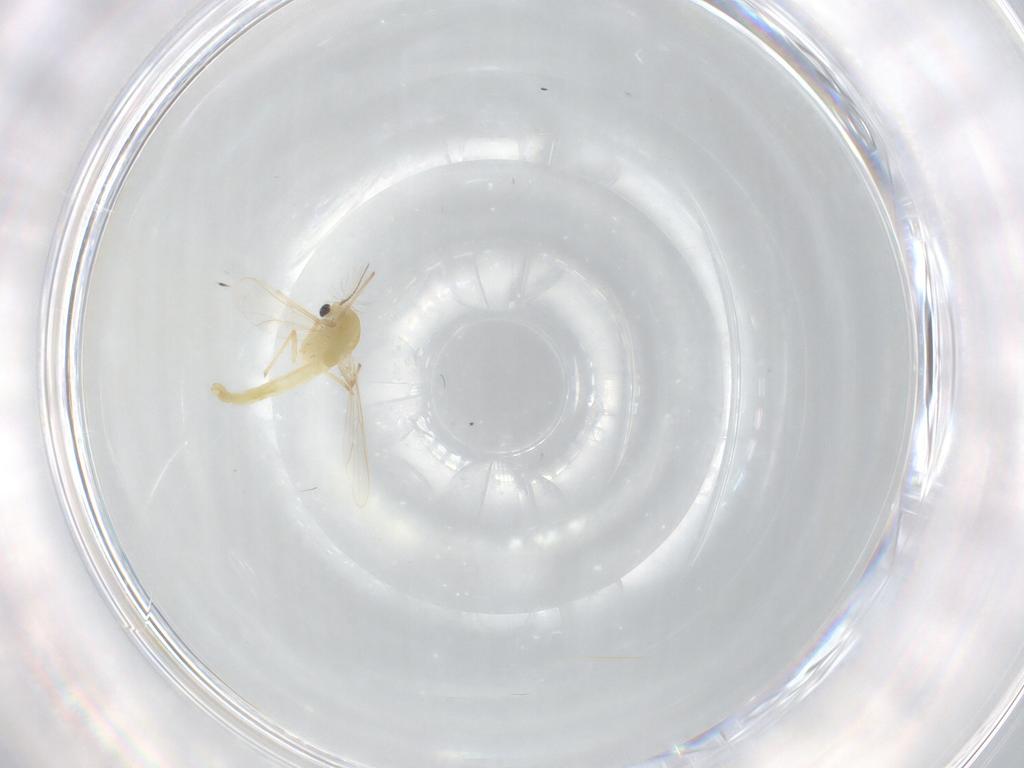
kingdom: Animalia
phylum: Arthropoda
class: Insecta
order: Diptera
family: Chironomidae
